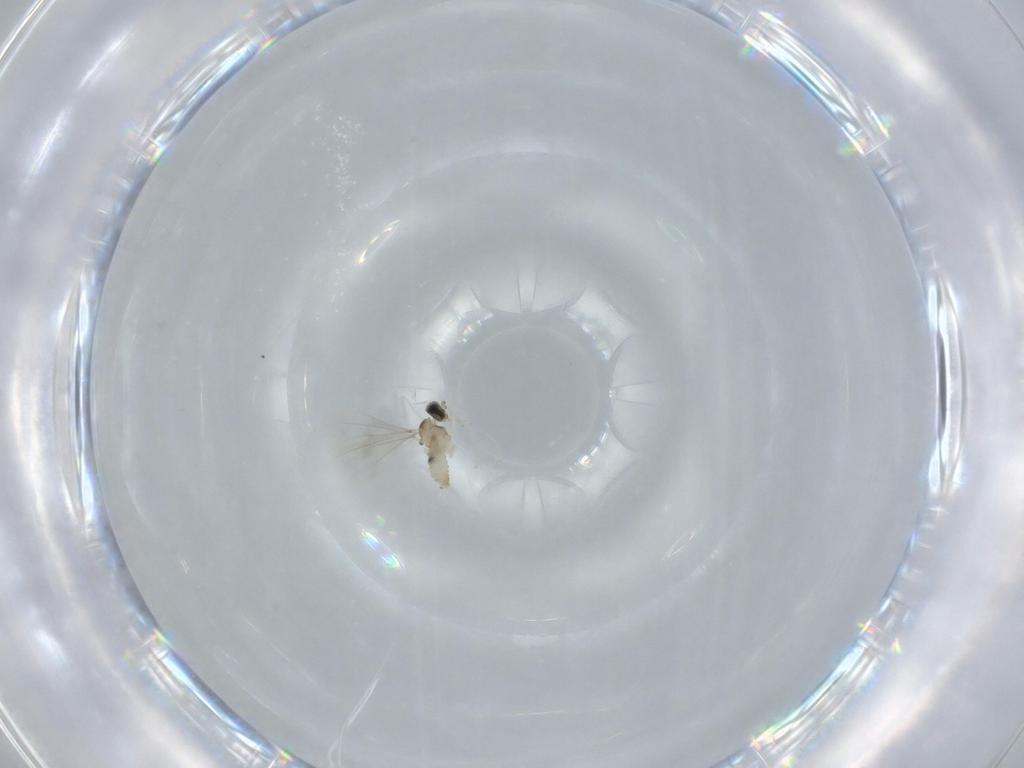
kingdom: Animalia
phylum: Arthropoda
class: Insecta
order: Diptera
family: Cecidomyiidae
